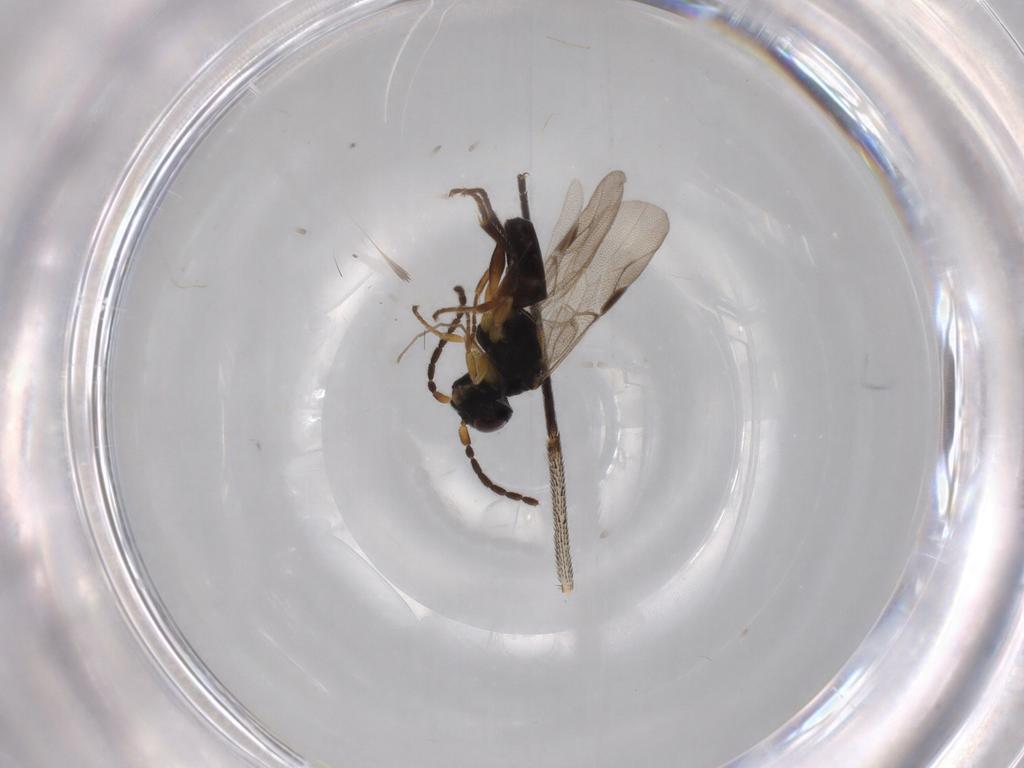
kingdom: Animalia
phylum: Arthropoda
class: Insecta
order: Hymenoptera
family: Dryinidae
